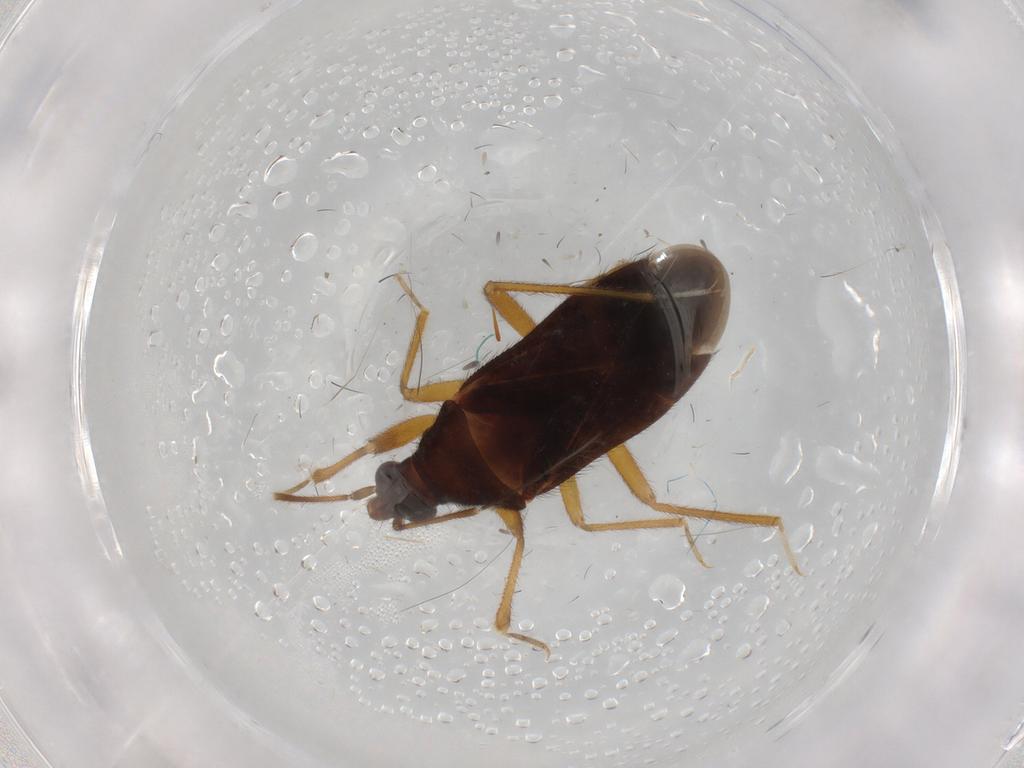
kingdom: Animalia
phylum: Arthropoda
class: Insecta
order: Hemiptera
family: Anthocoridae
